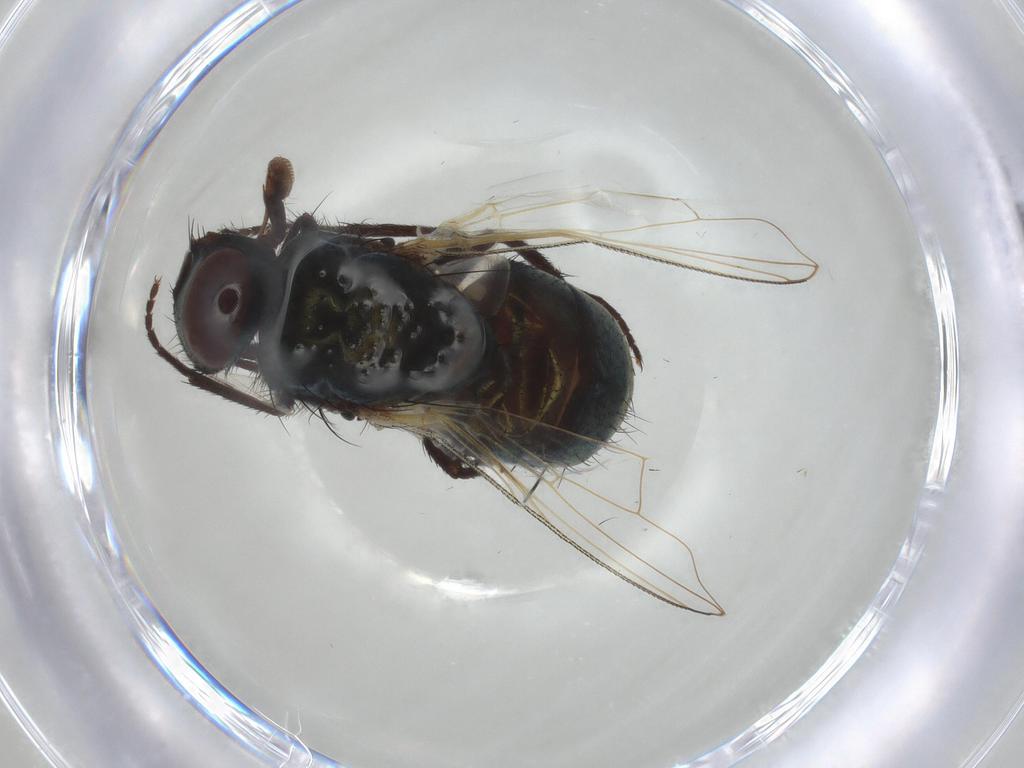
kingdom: Animalia
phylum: Arthropoda
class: Insecta
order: Diptera
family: Muscidae
